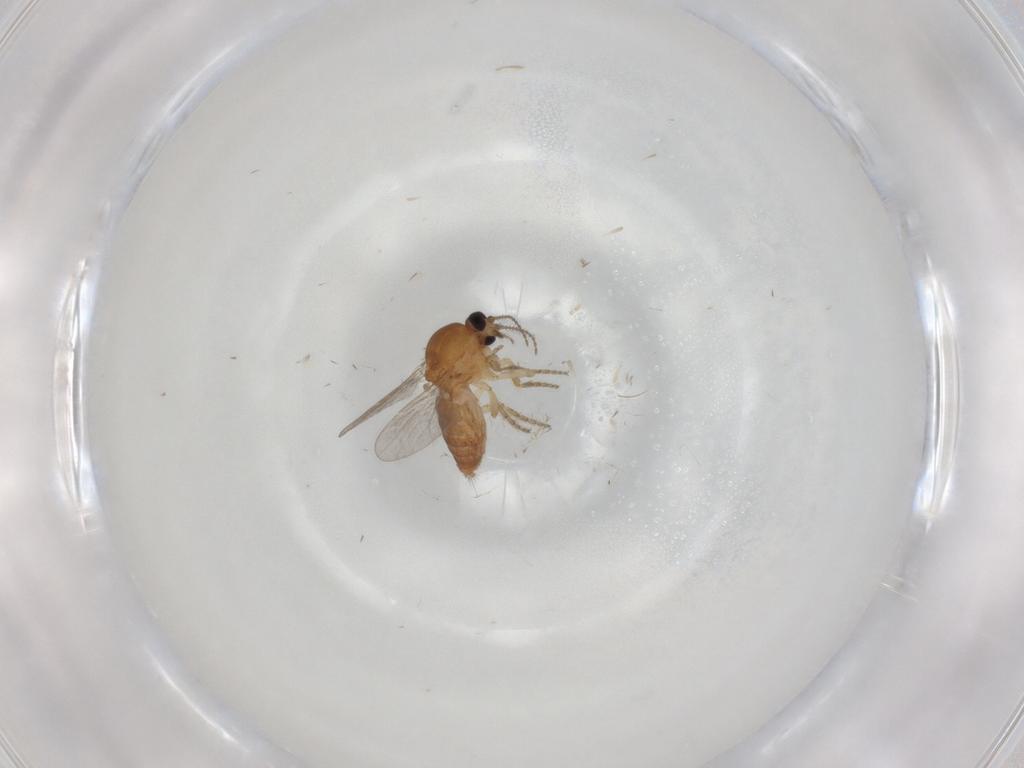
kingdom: Animalia
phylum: Arthropoda
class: Insecta
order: Diptera
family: Ceratopogonidae
